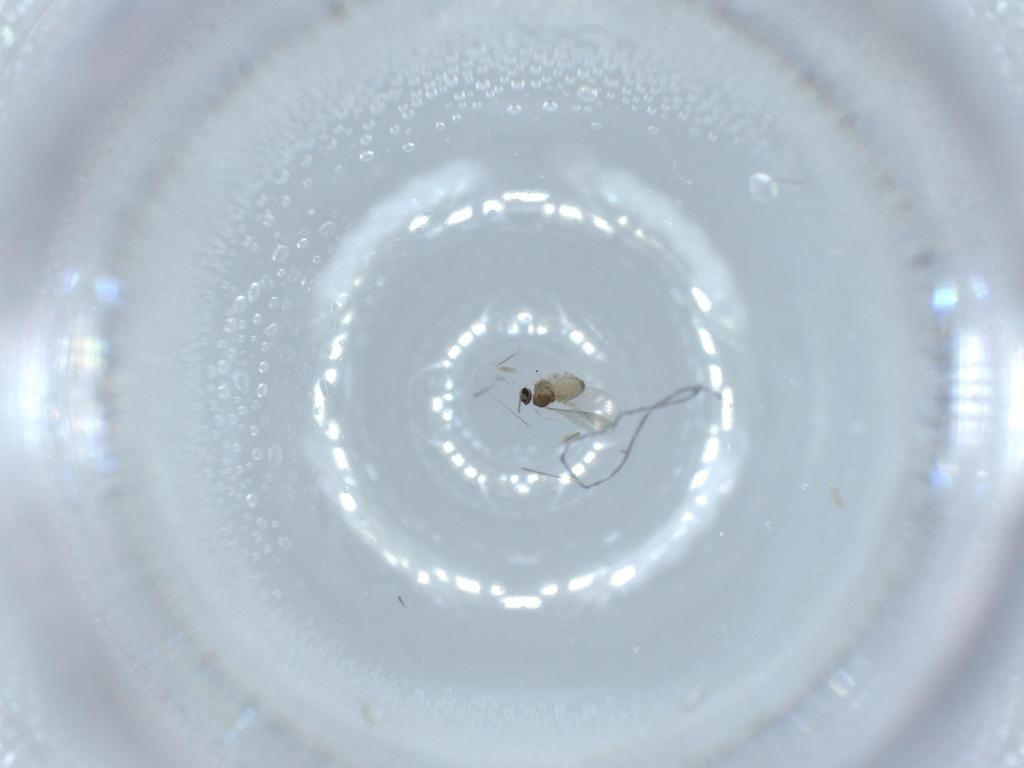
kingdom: Animalia
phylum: Arthropoda
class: Insecta
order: Diptera
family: Cecidomyiidae
